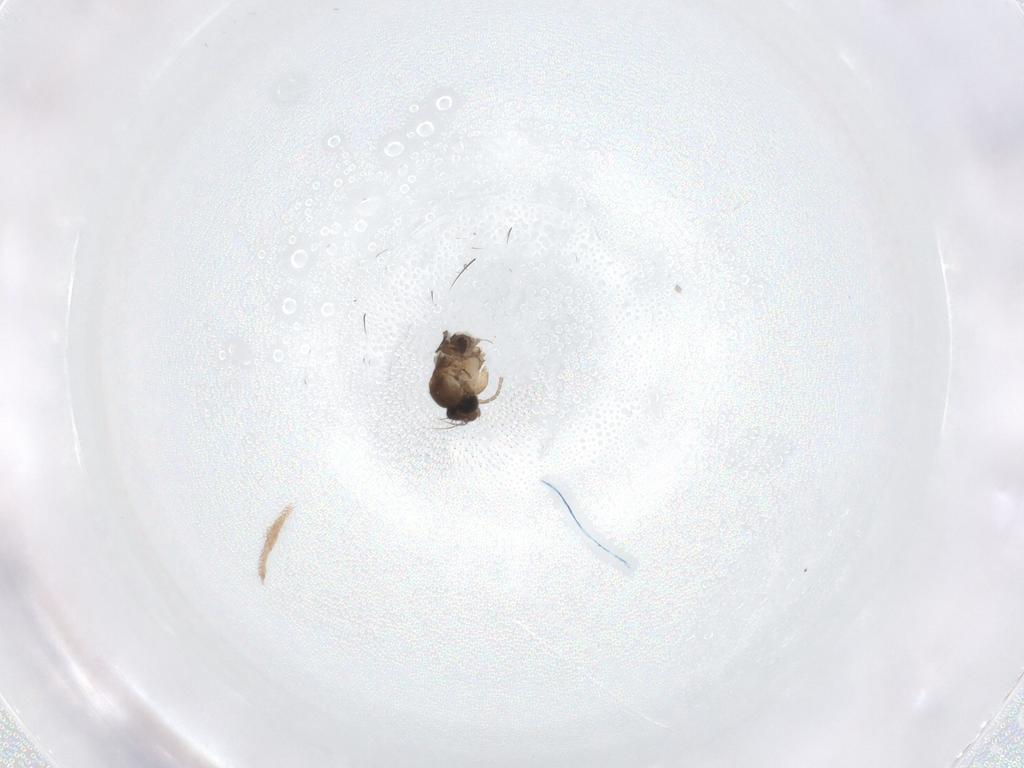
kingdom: Animalia
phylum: Arthropoda
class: Insecta
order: Diptera
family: Phoridae
